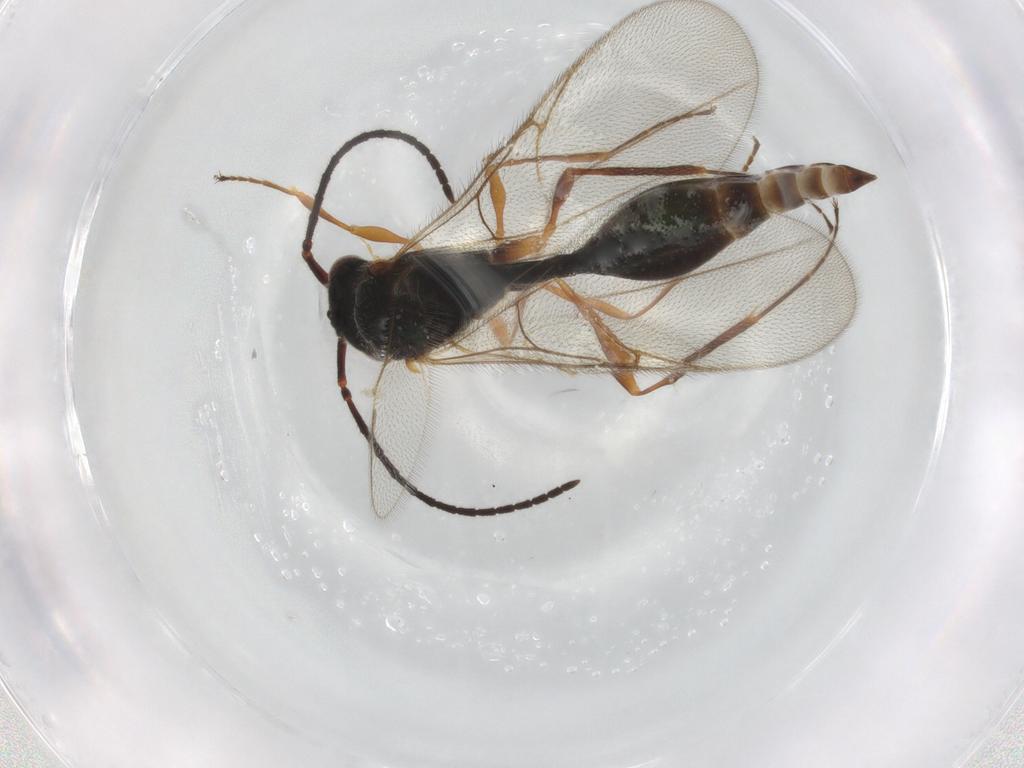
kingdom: Animalia
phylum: Arthropoda
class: Insecta
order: Hymenoptera
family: Diapriidae
